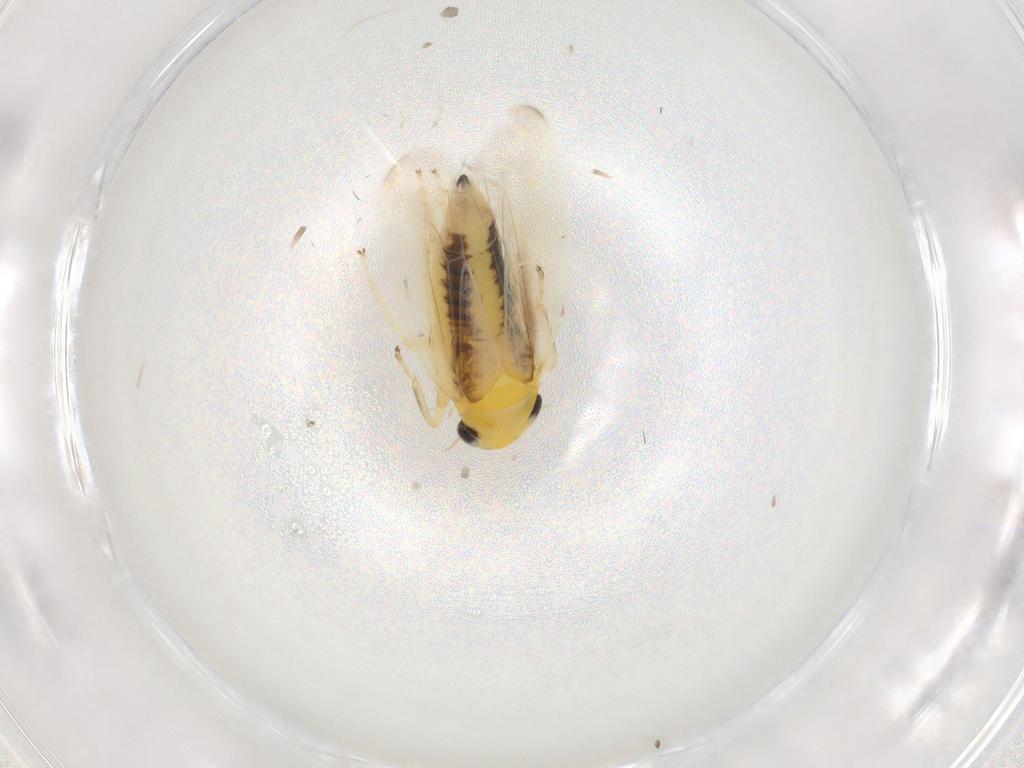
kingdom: Animalia
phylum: Arthropoda
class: Insecta
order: Hemiptera
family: Cicadellidae
